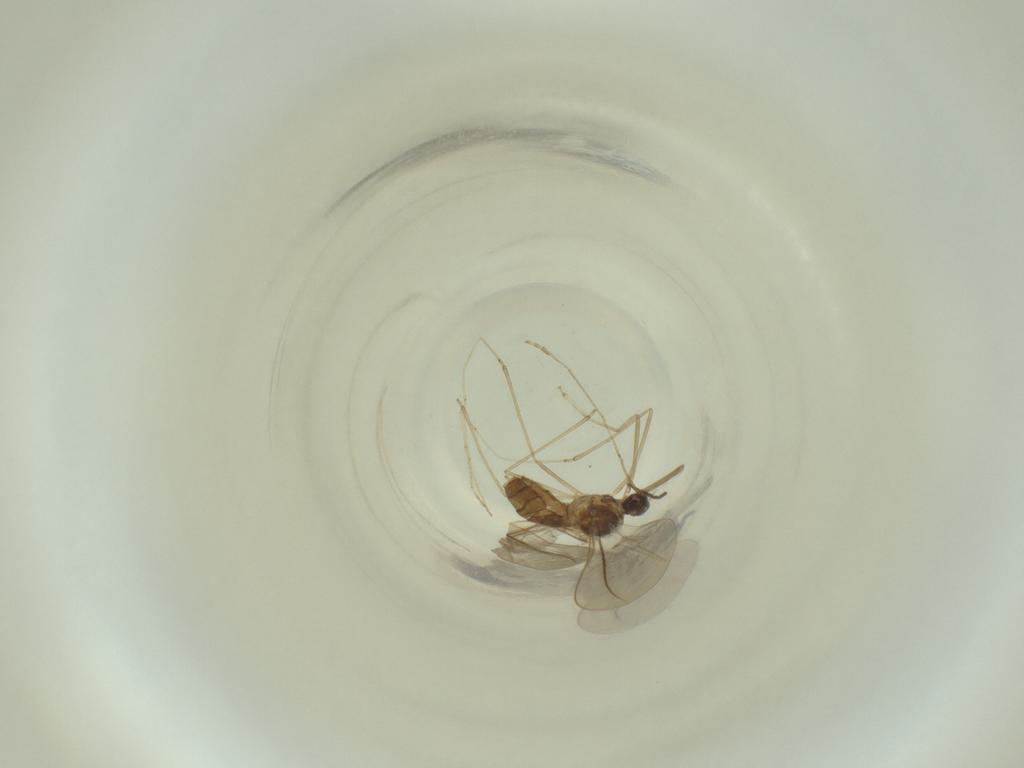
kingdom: Animalia
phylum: Arthropoda
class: Insecta
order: Diptera
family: Cecidomyiidae
